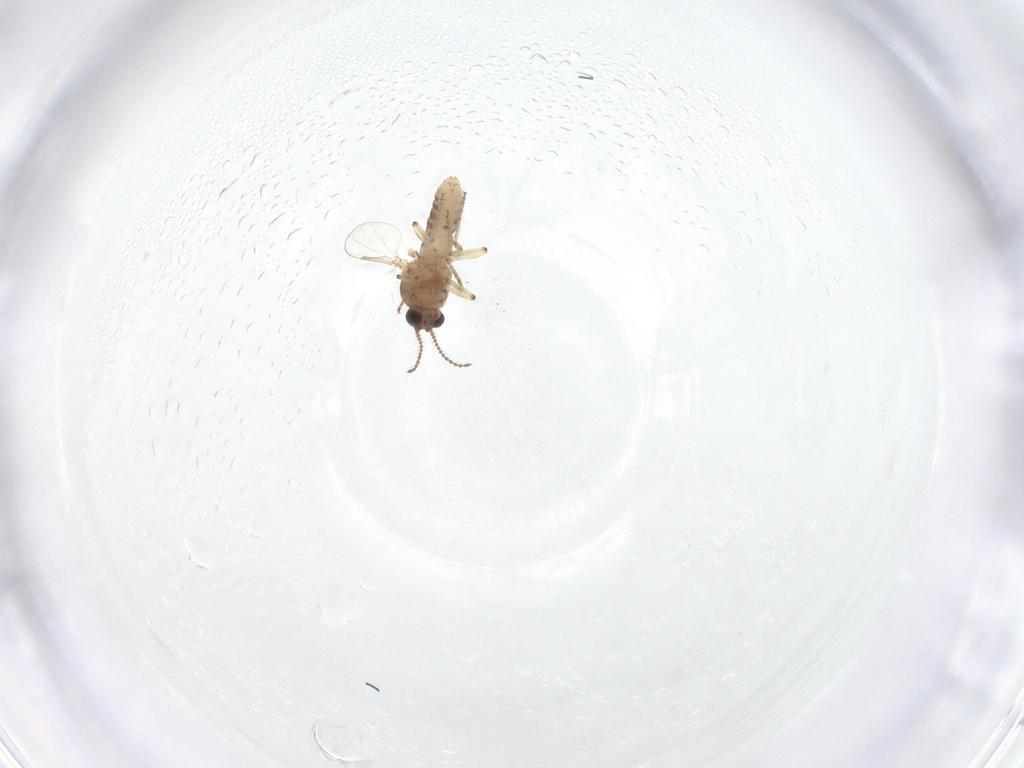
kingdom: Animalia
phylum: Arthropoda
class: Insecta
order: Diptera
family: Ceratopogonidae
